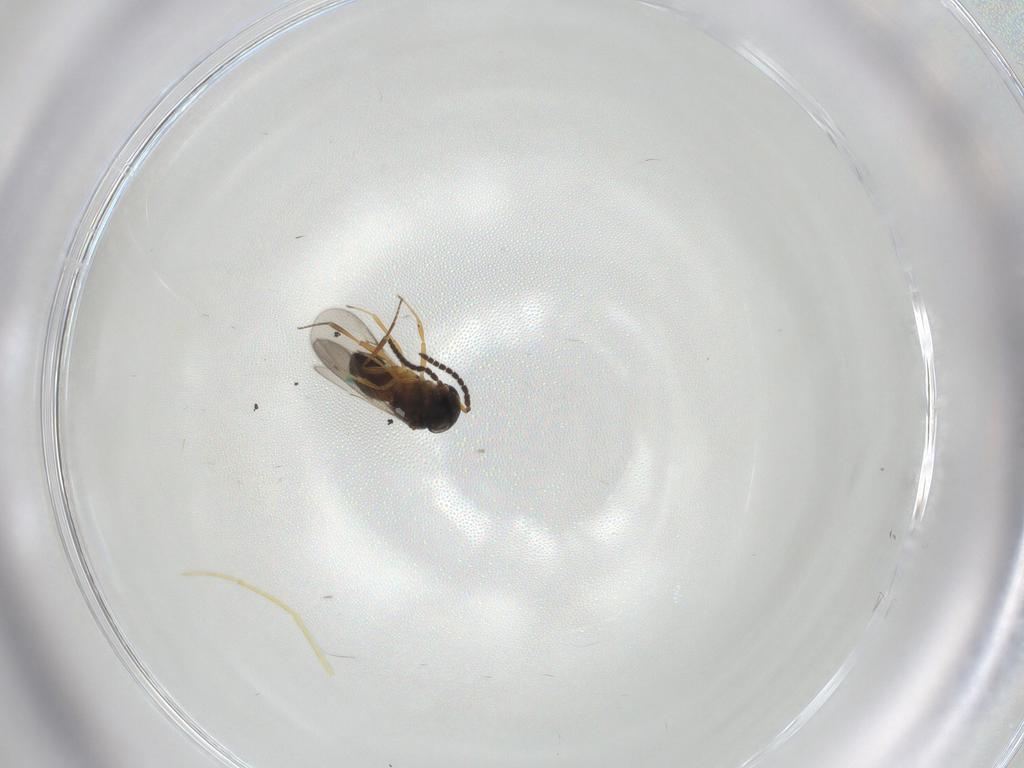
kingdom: Animalia
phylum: Arthropoda
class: Insecta
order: Hymenoptera
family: Scelionidae
